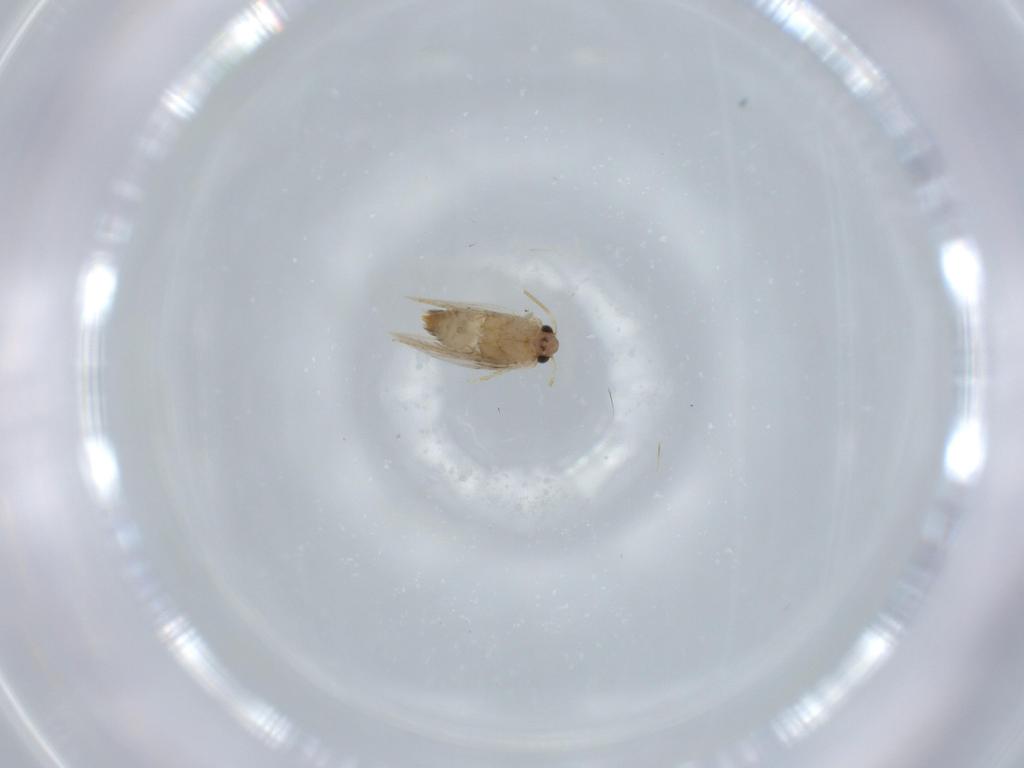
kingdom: Animalia
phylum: Arthropoda
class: Insecta
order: Lepidoptera
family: Nepticulidae
